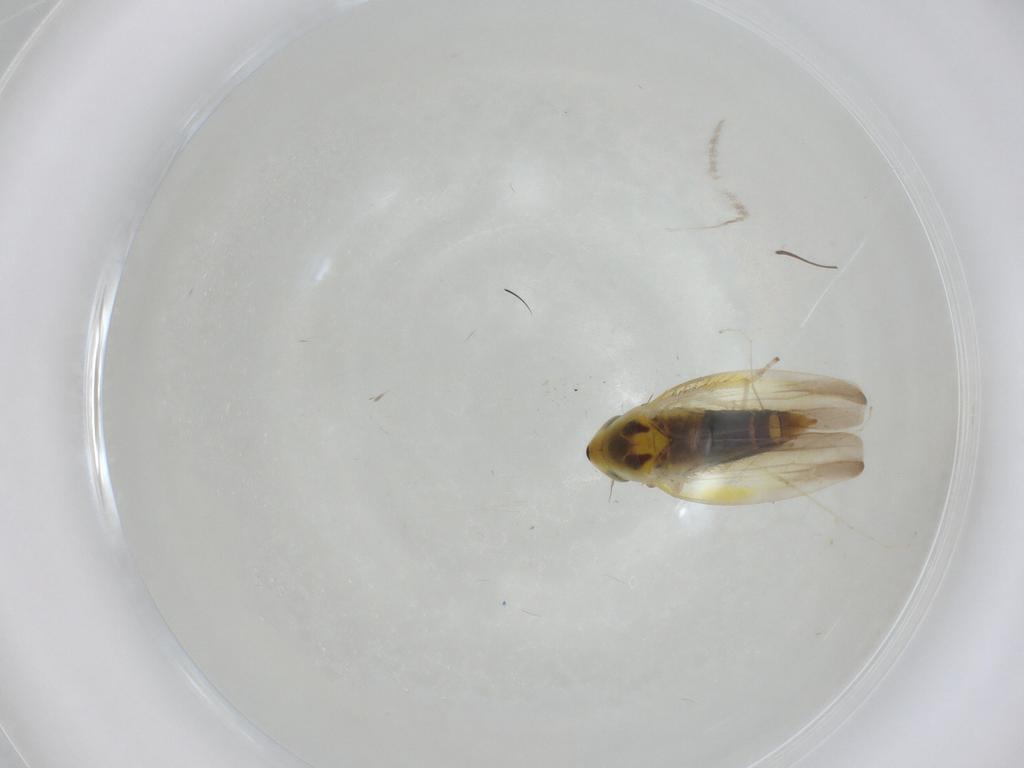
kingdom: Animalia
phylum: Arthropoda
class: Insecta
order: Hemiptera
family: Cicadellidae
